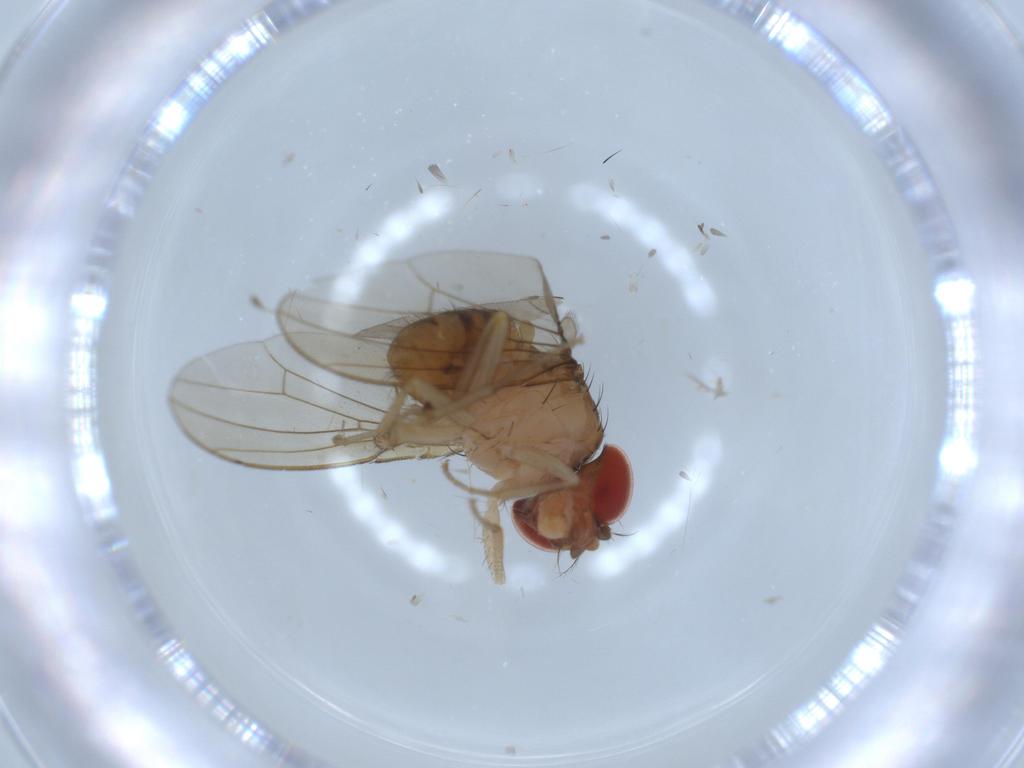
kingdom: Animalia
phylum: Arthropoda
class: Insecta
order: Diptera
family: Drosophilidae
